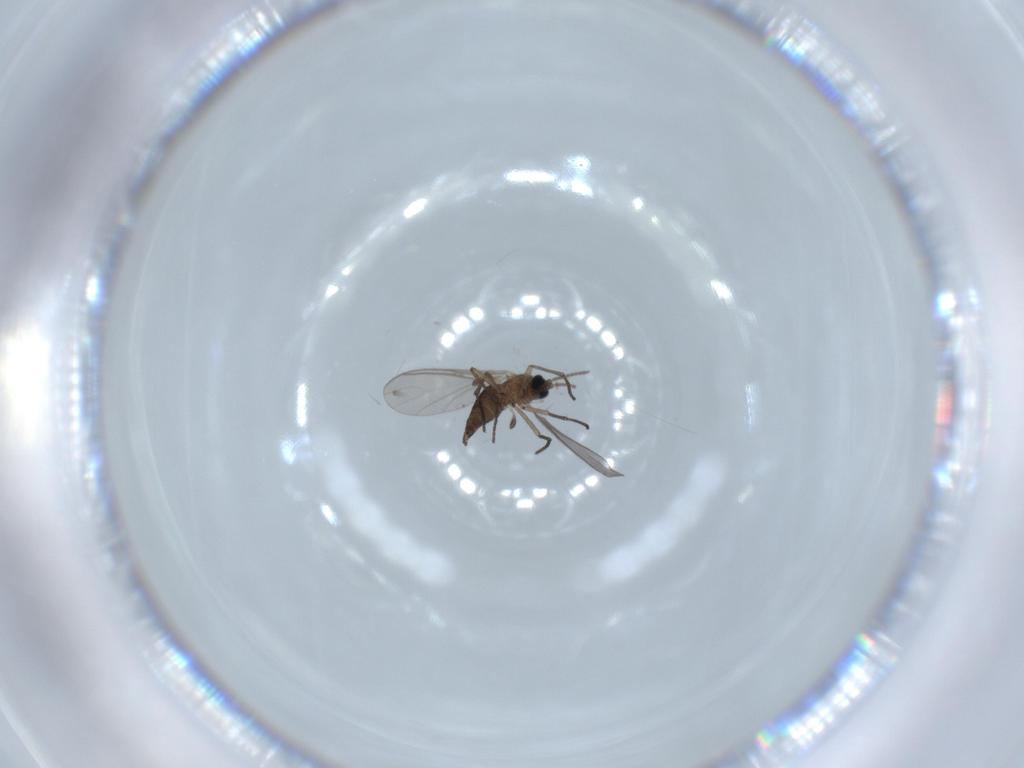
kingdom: Animalia
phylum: Arthropoda
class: Insecta
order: Diptera
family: Sciaridae
